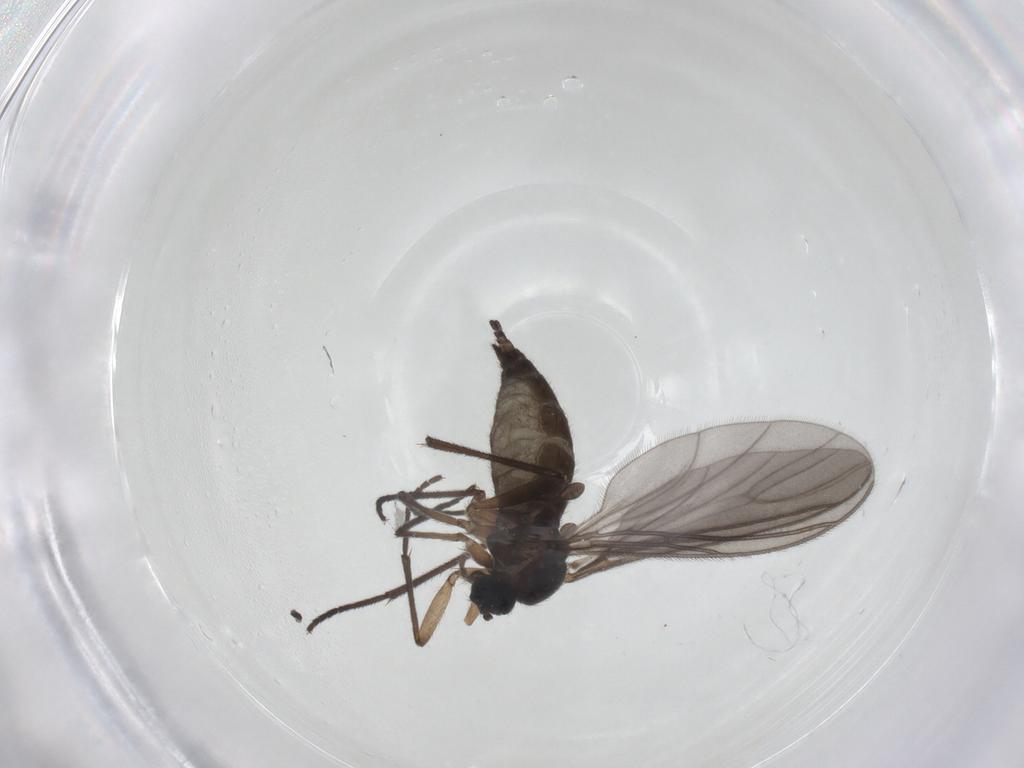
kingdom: Animalia
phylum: Arthropoda
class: Insecta
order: Diptera
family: Sciaridae
